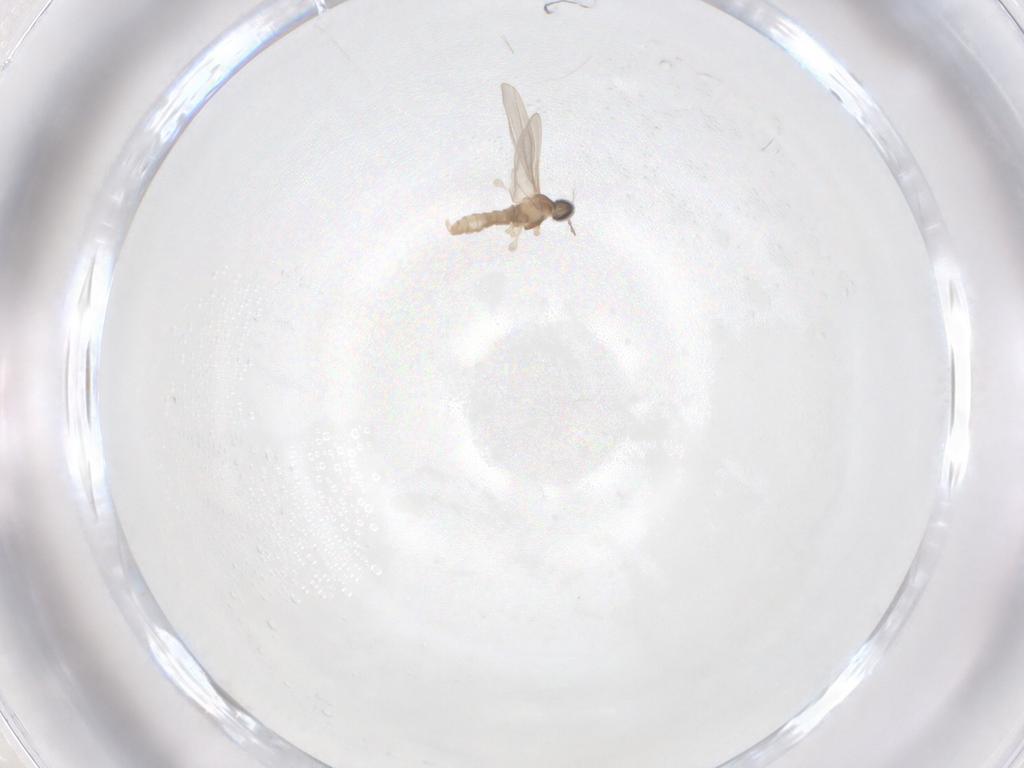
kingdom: Animalia
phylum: Arthropoda
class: Insecta
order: Diptera
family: Cecidomyiidae
